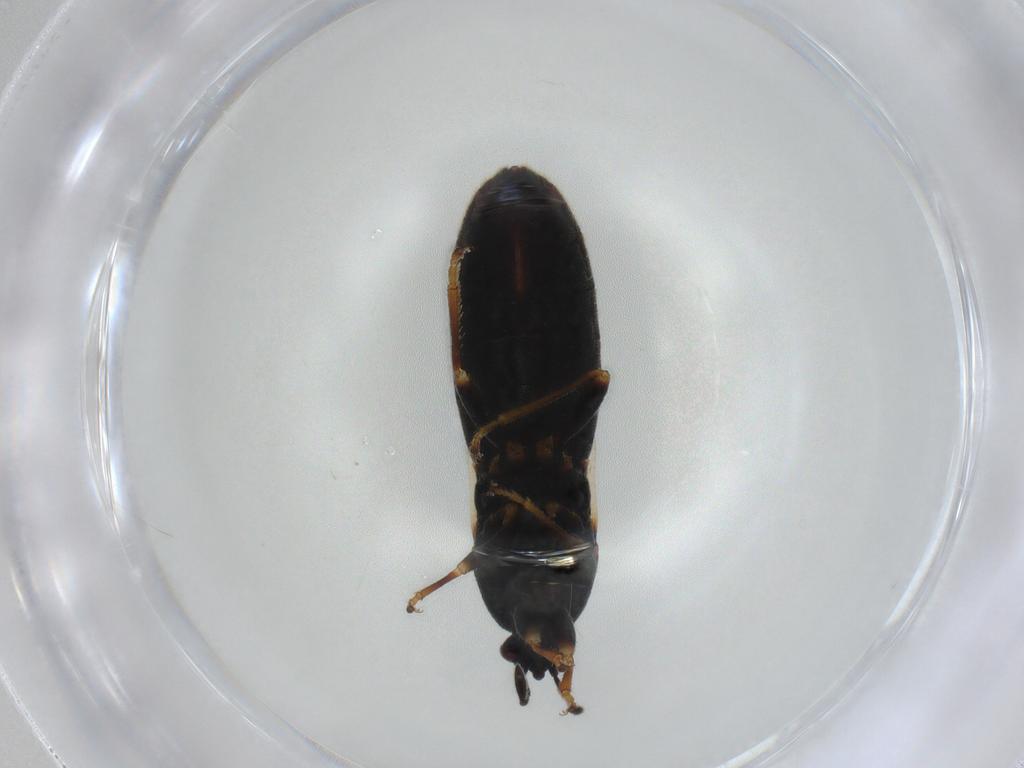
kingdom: Animalia
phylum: Arthropoda
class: Insecta
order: Hemiptera
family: Blissidae
